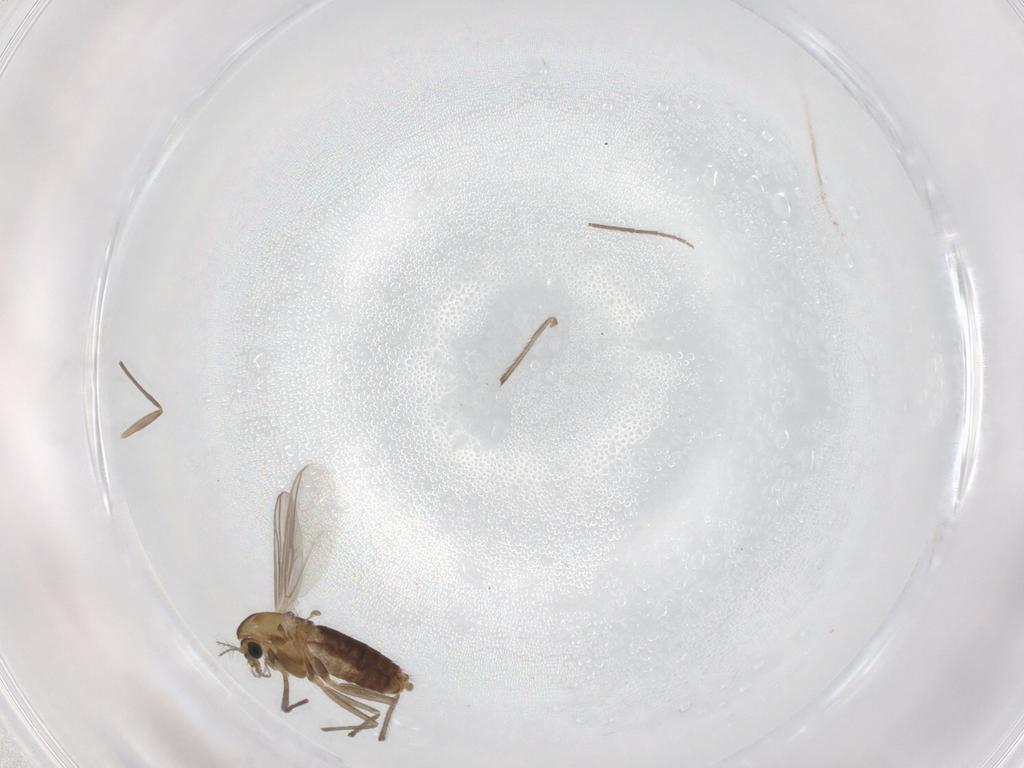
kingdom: Animalia
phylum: Arthropoda
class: Insecta
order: Diptera
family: Chironomidae
